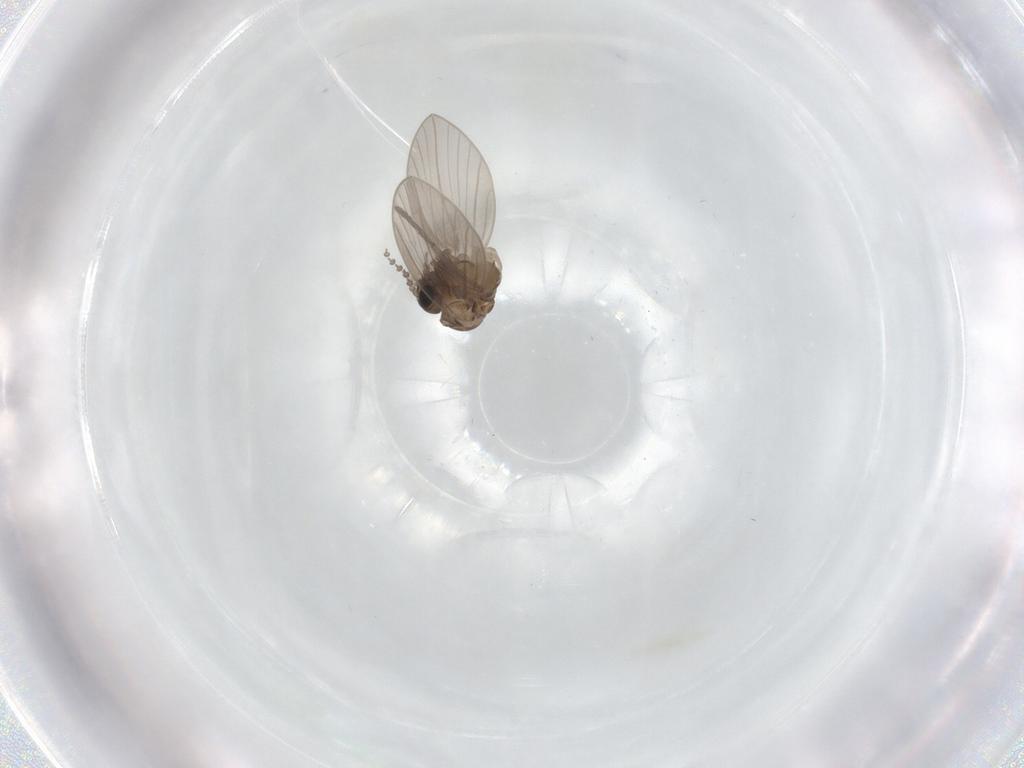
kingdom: Animalia
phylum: Arthropoda
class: Insecta
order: Diptera
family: Psychodidae
